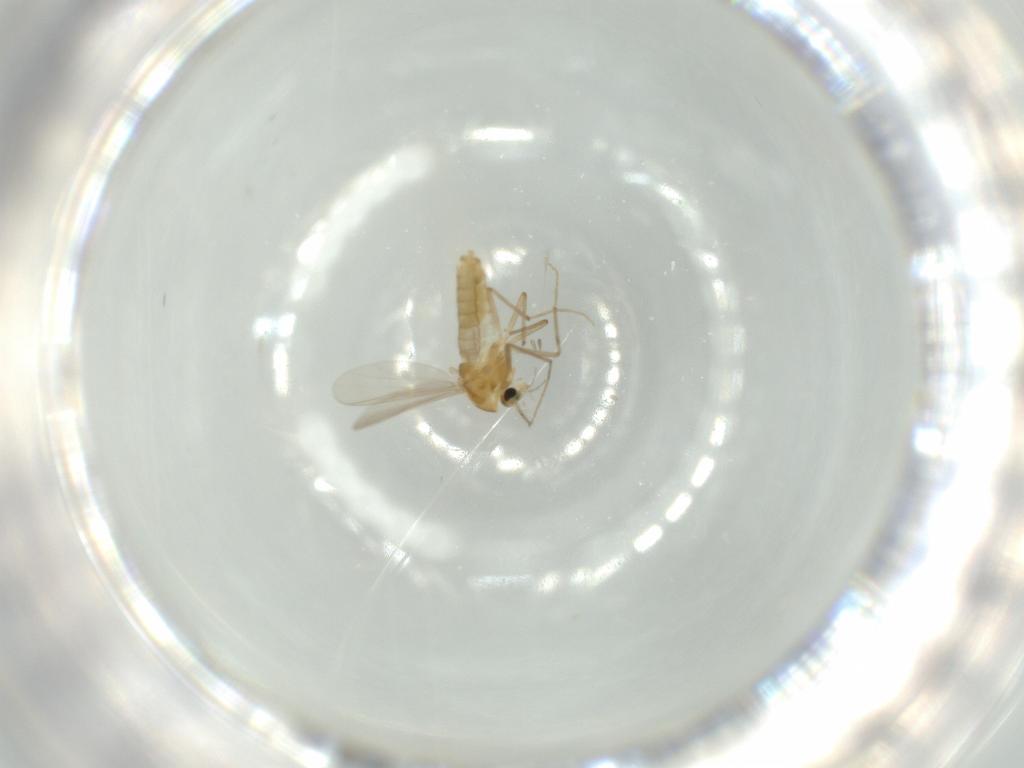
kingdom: Animalia
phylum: Arthropoda
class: Insecta
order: Diptera
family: Chironomidae
